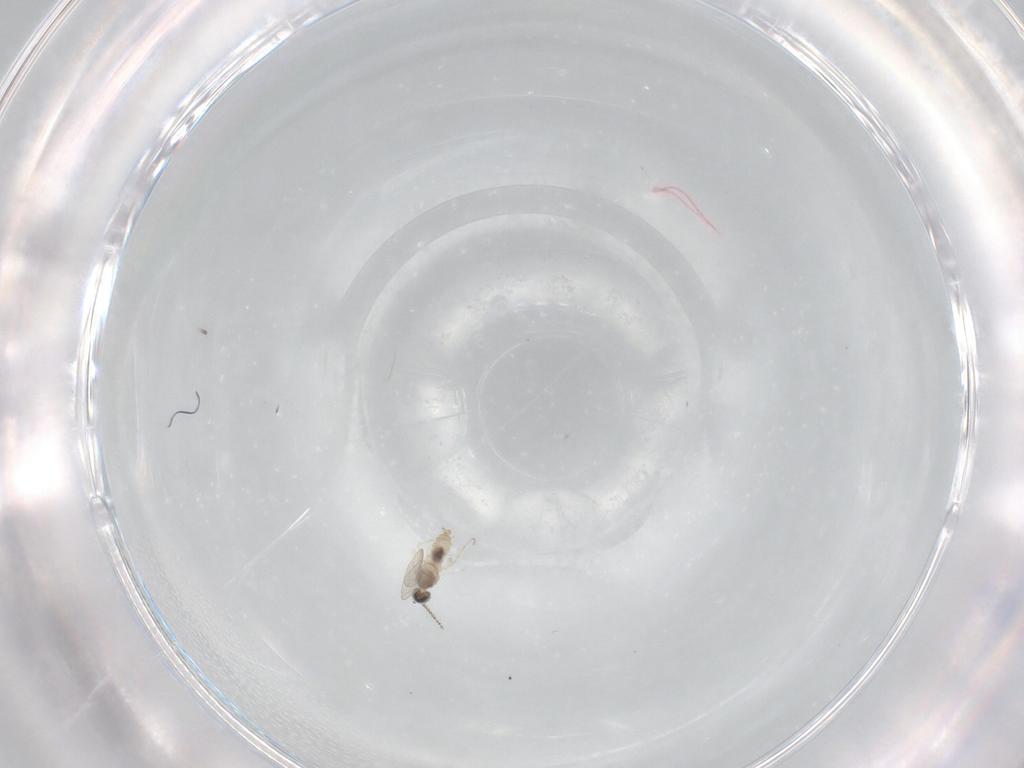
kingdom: Animalia
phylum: Arthropoda
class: Insecta
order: Diptera
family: Cecidomyiidae
